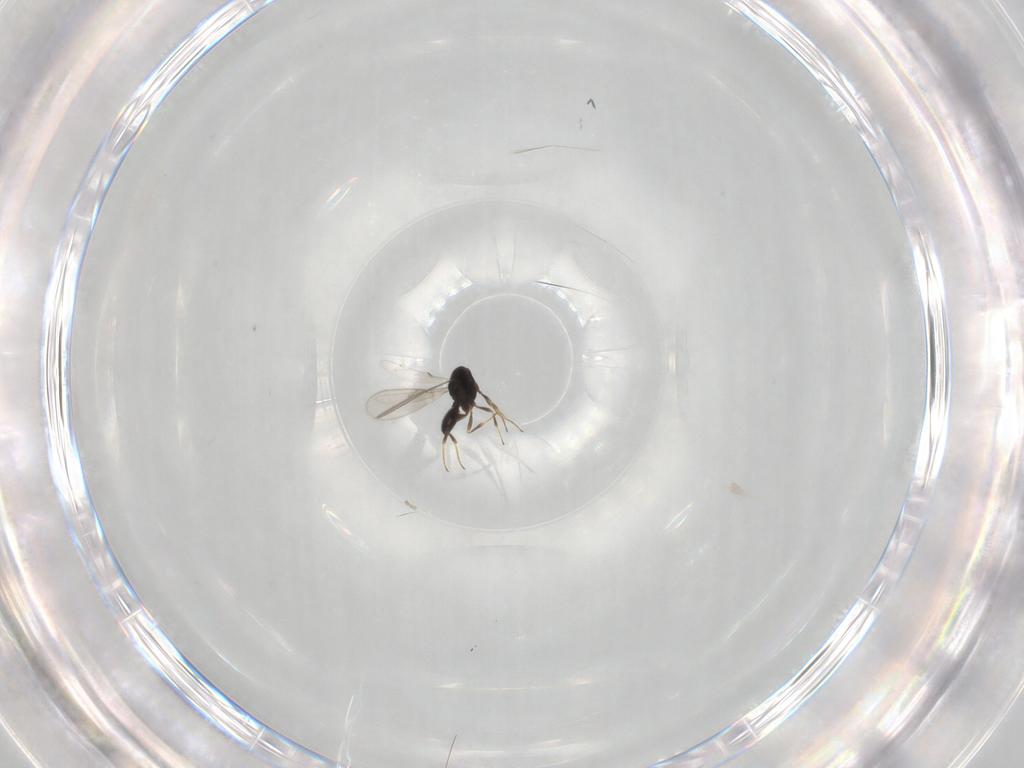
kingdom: Animalia
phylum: Arthropoda
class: Insecta
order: Hymenoptera
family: Scelionidae
